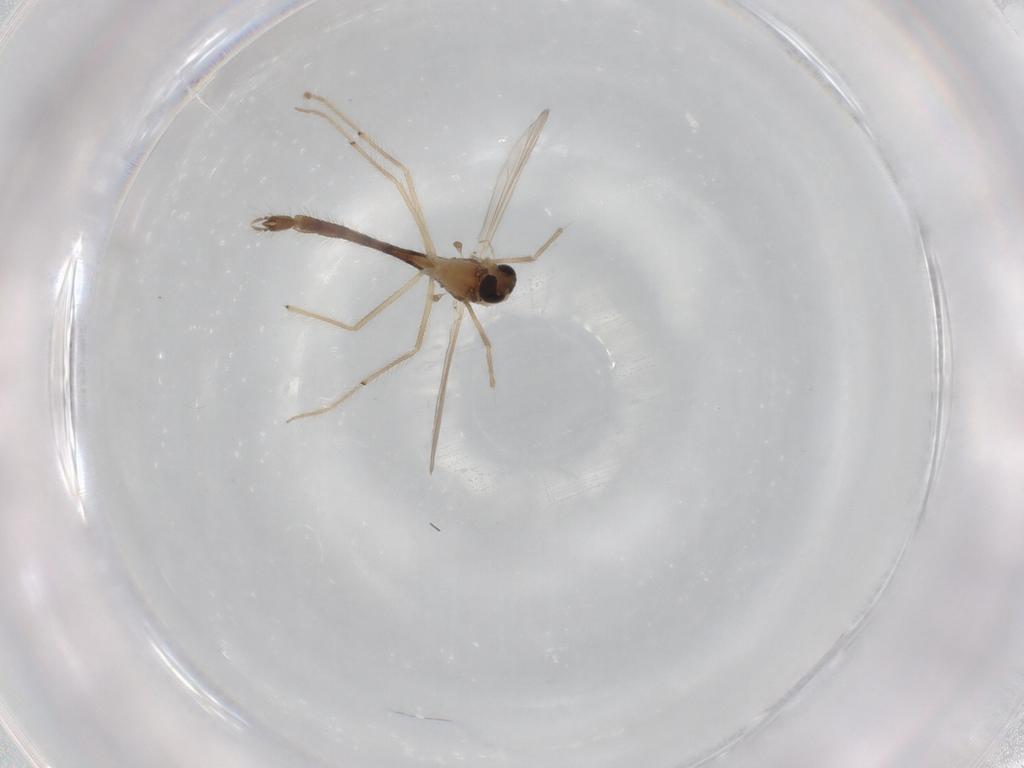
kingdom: Animalia
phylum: Arthropoda
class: Insecta
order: Diptera
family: Chironomidae
